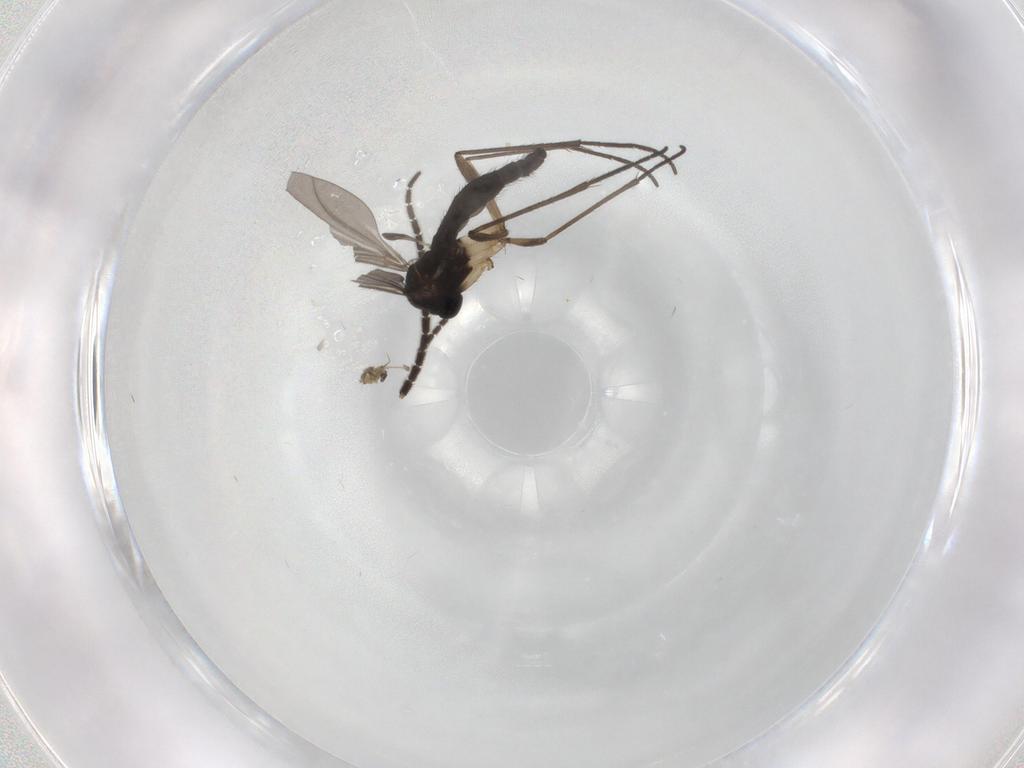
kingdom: Animalia
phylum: Arthropoda
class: Insecta
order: Diptera
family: Sciaridae
